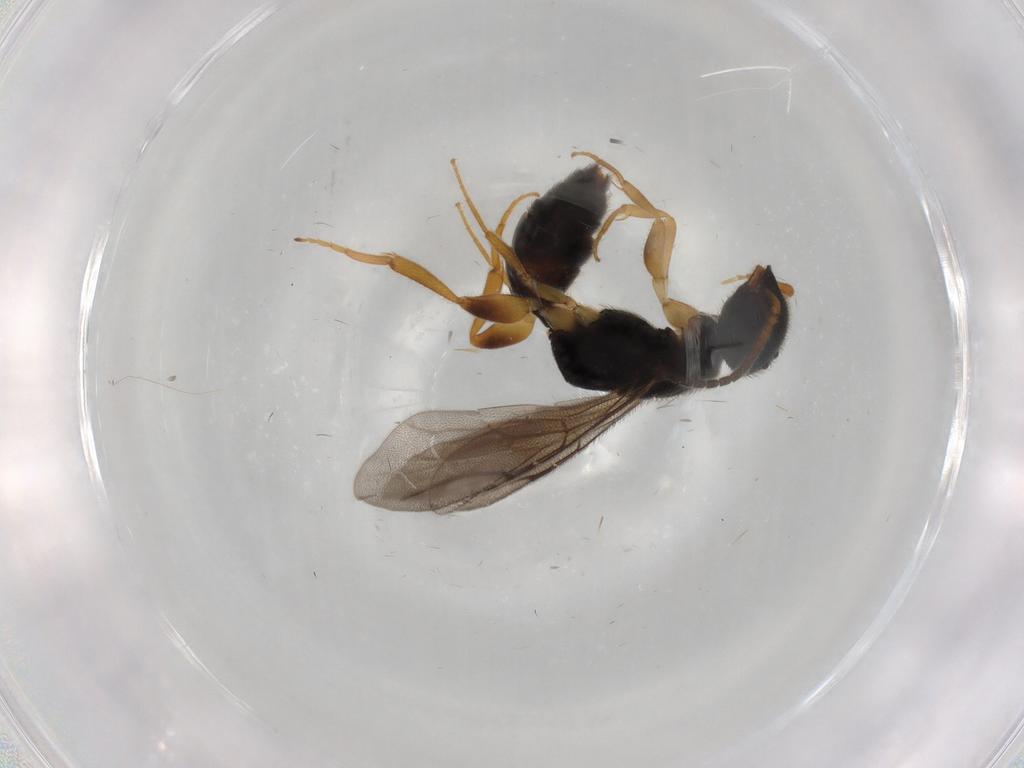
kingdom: Animalia
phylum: Arthropoda
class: Insecta
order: Hymenoptera
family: Bethylidae
